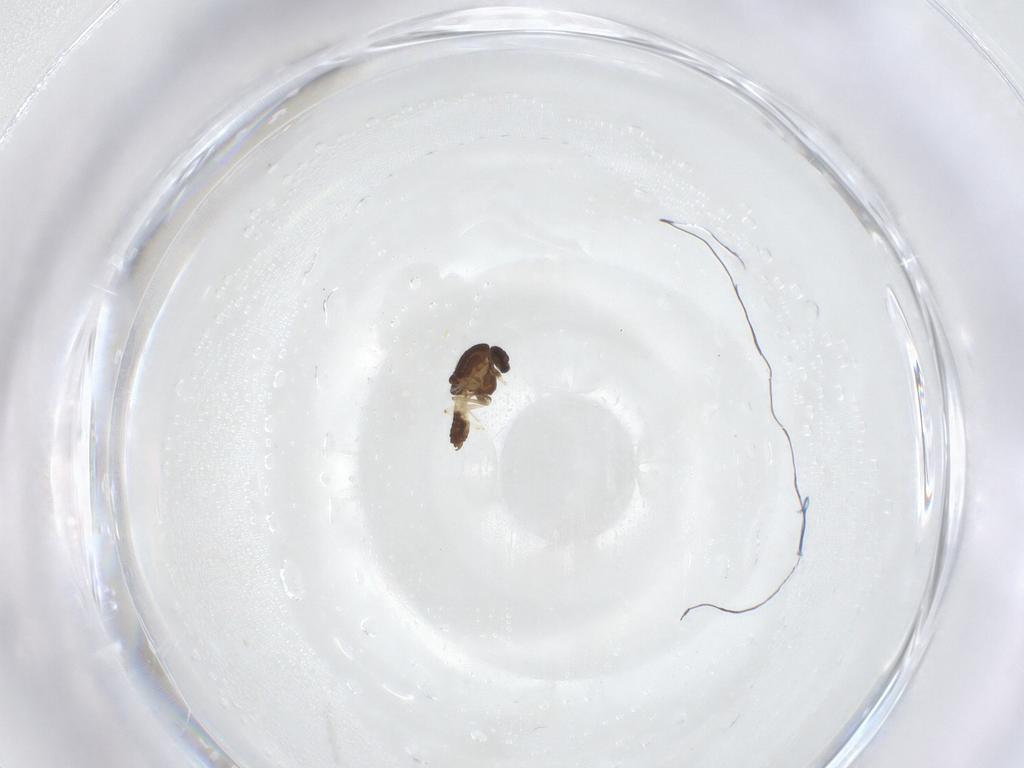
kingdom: Animalia
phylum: Arthropoda
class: Insecta
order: Diptera
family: Chironomidae
